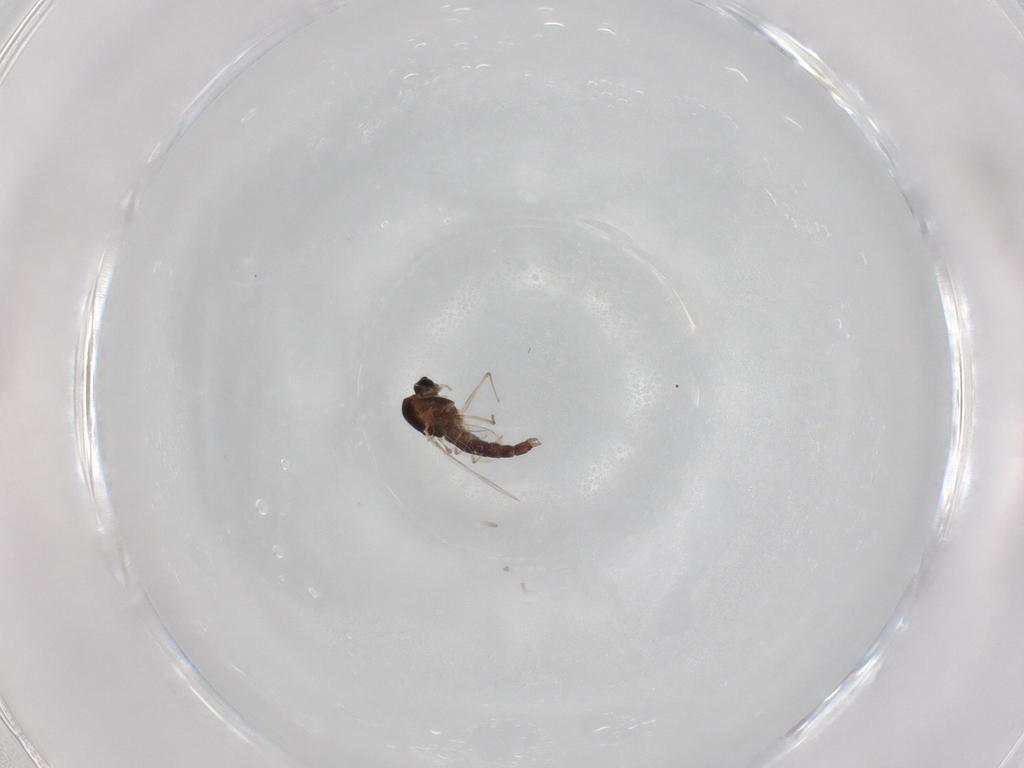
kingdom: Animalia
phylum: Arthropoda
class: Insecta
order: Diptera
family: Chironomidae
